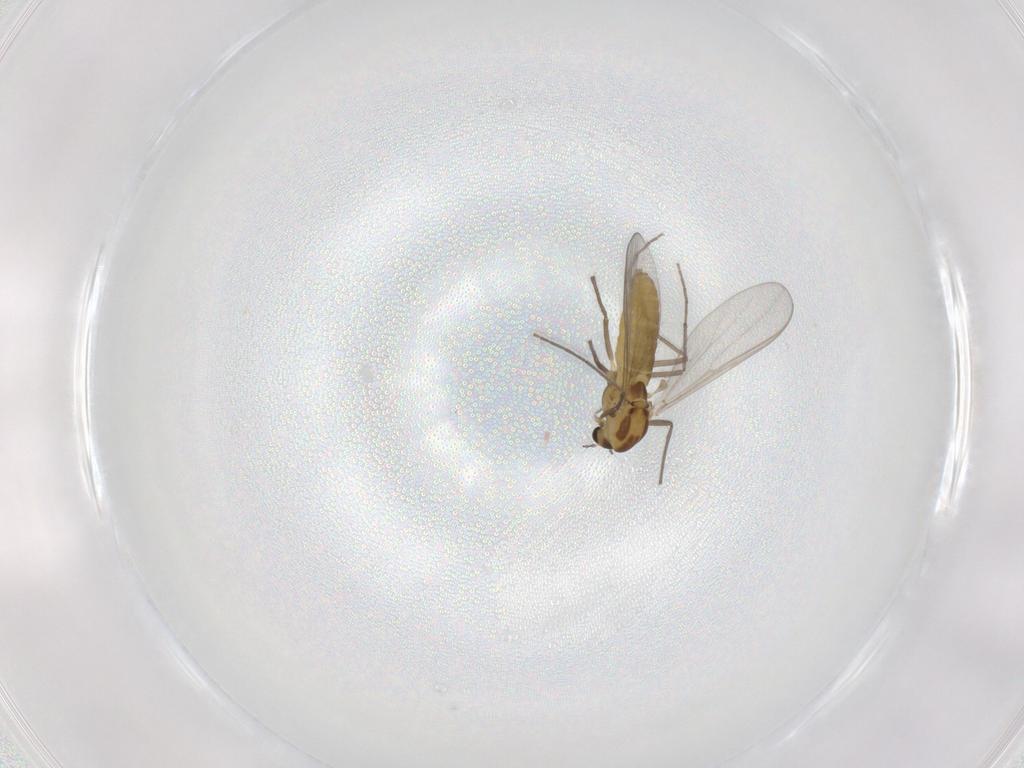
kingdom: Animalia
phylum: Arthropoda
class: Insecta
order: Diptera
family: Chironomidae
